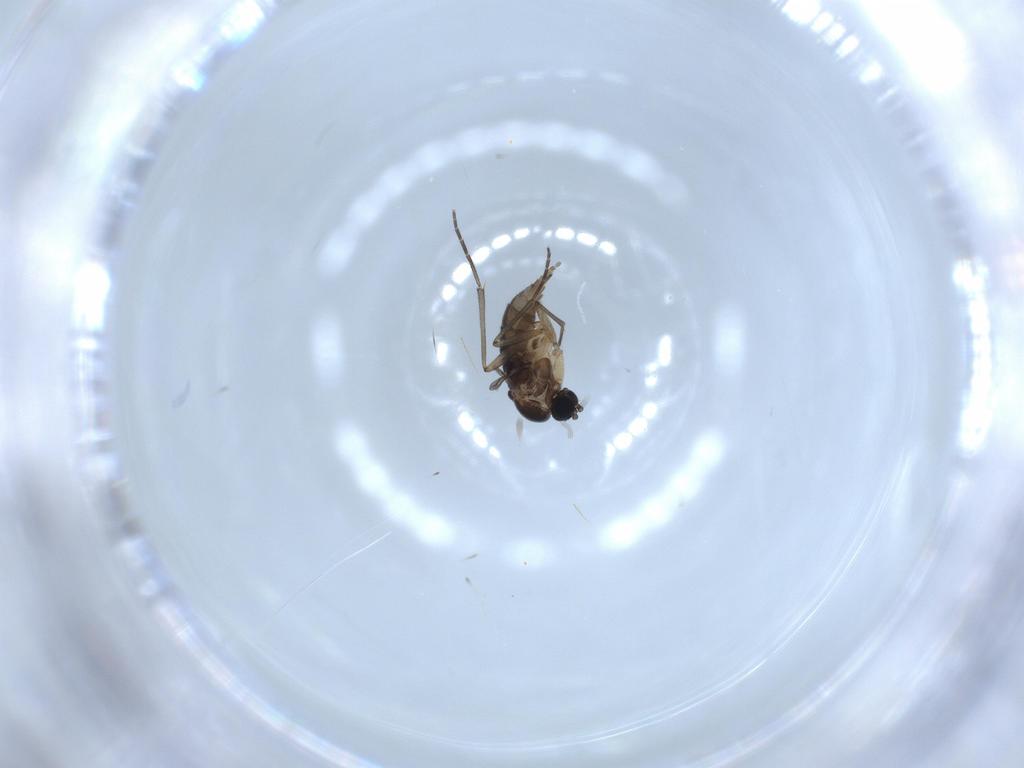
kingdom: Animalia
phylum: Arthropoda
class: Insecta
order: Diptera
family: Sciaridae
